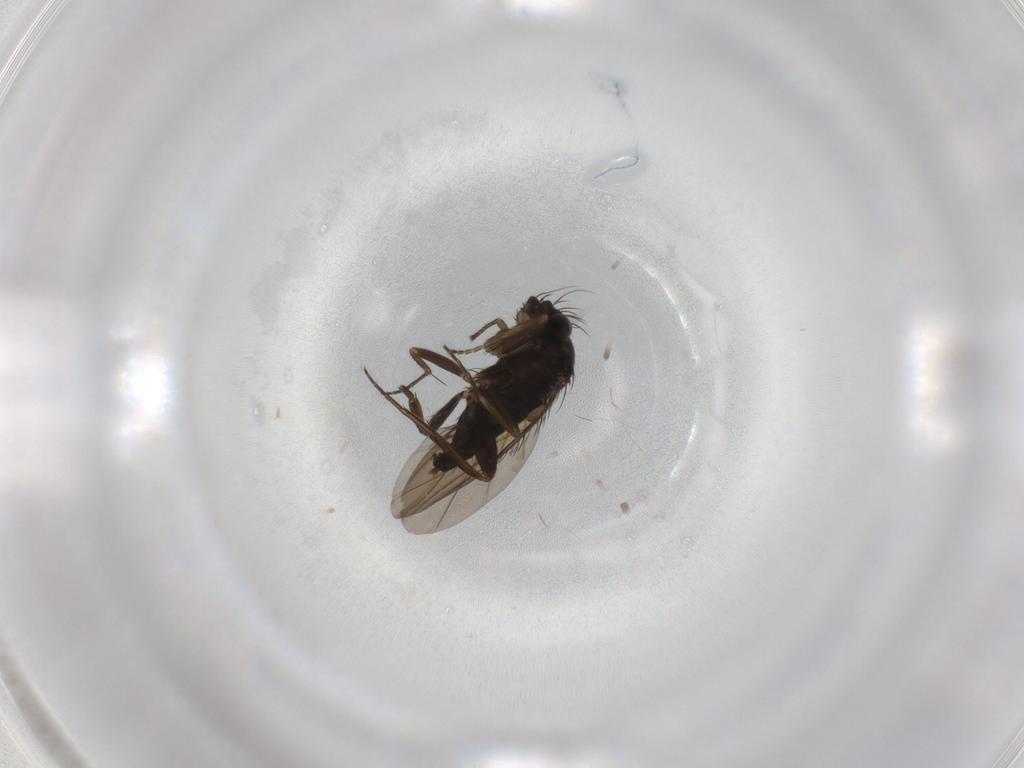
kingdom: Animalia
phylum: Arthropoda
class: Insecta
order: Diptera
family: Phoridae
